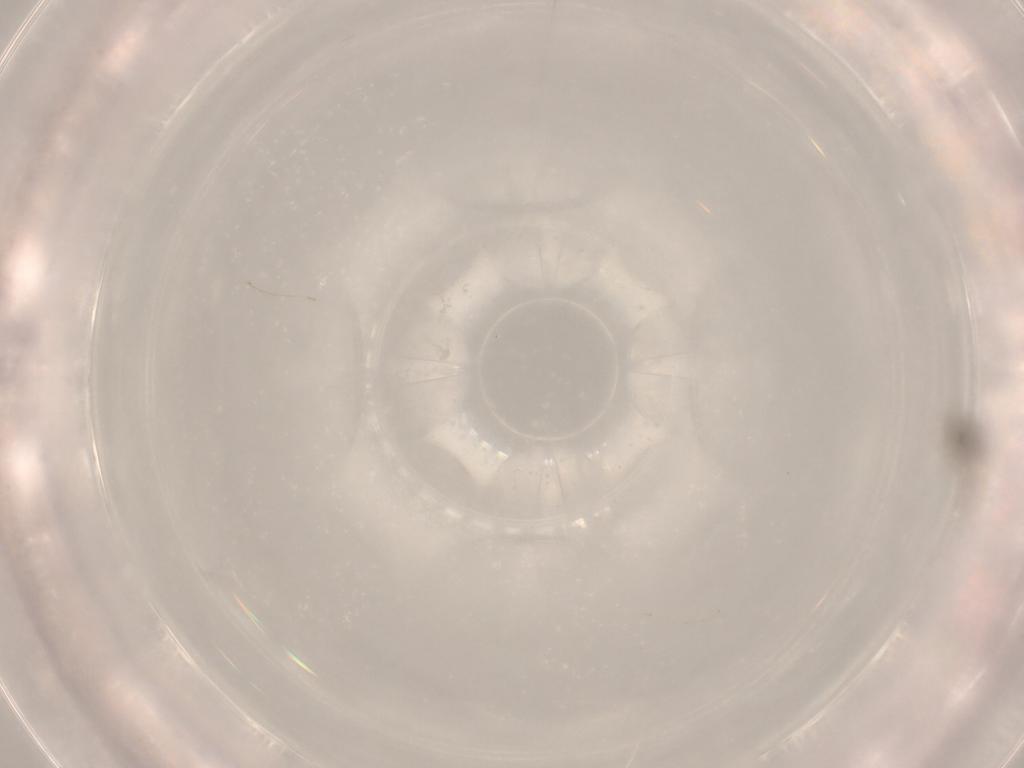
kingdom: Animalia
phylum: Arthropoda
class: Insecta
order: Diptera
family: Cecidomyiidae
